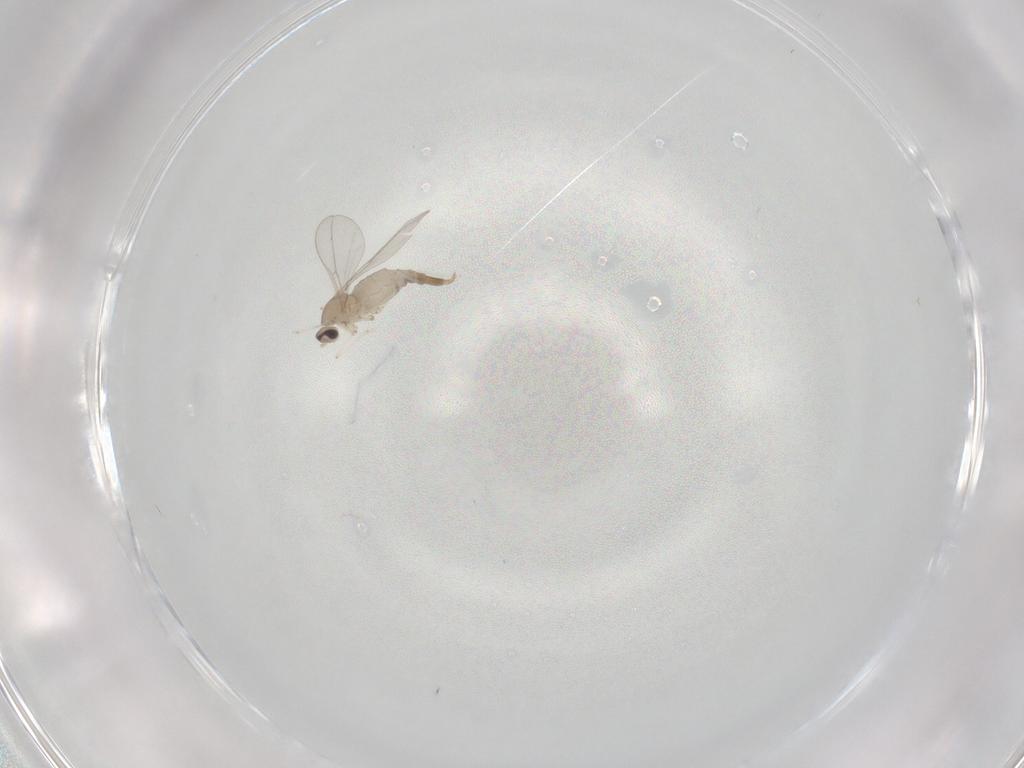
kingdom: Animalia
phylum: Arthropoda
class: Insecta
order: Diptera
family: Cecidomyiidae
